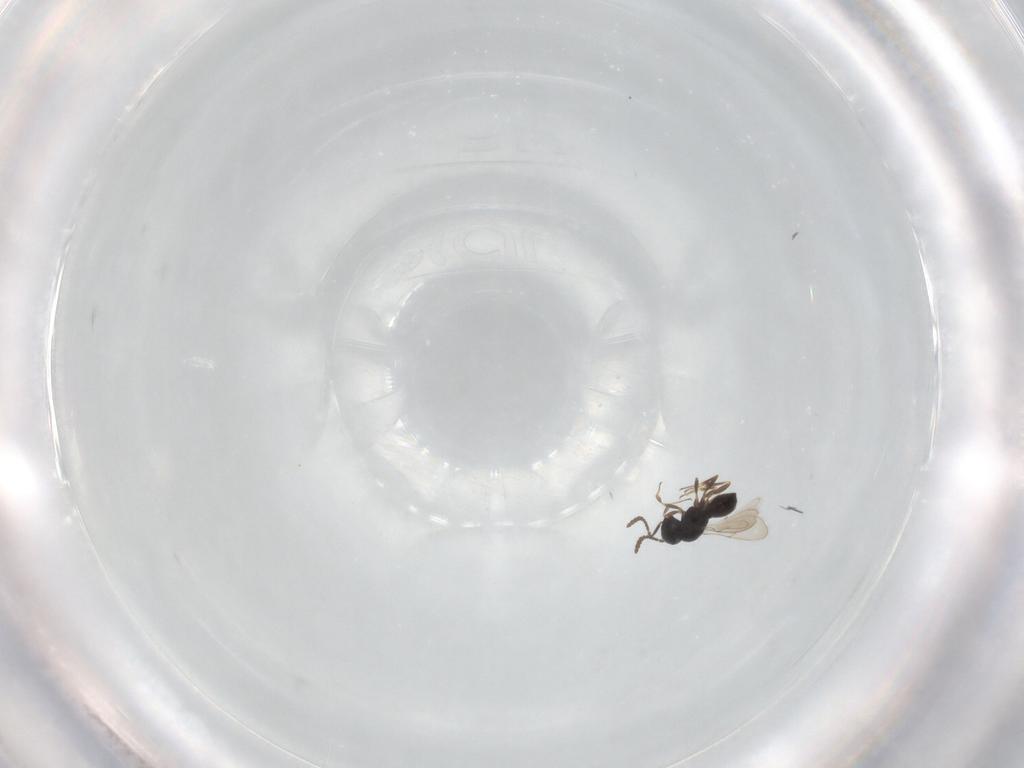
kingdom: Animalia
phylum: Arthropoda
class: Insecta
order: Hymenoptera
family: Scelionidae
